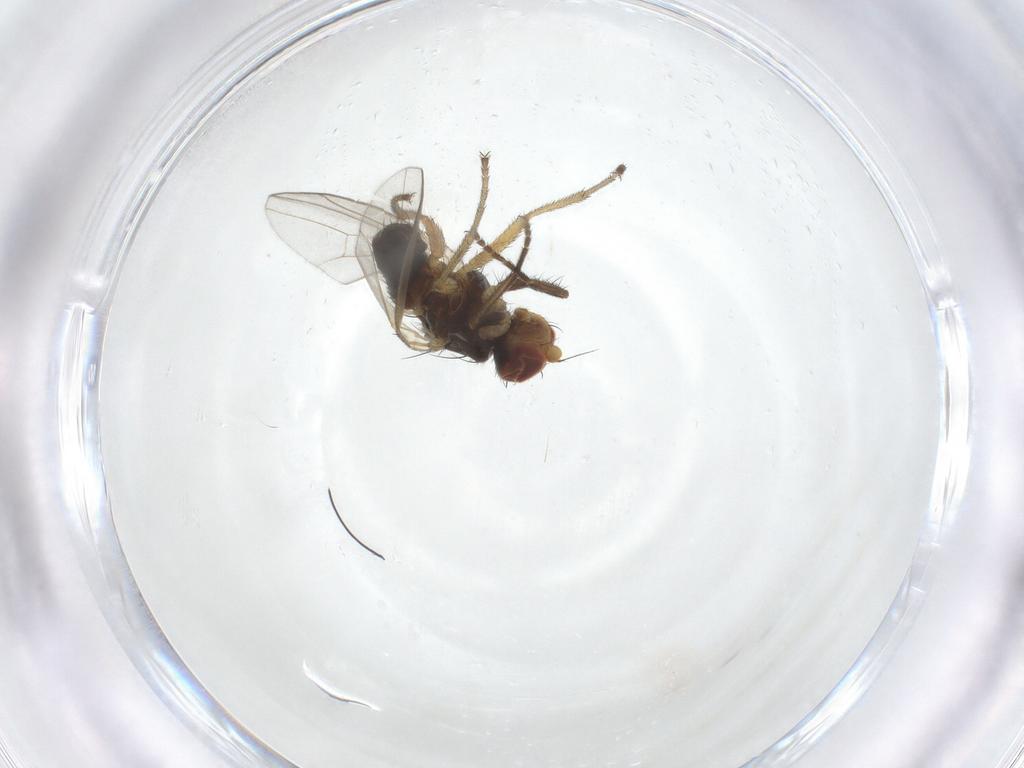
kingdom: Animalia
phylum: Arthropoda
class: Insecta
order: Diptera
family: Heleomyzidae
